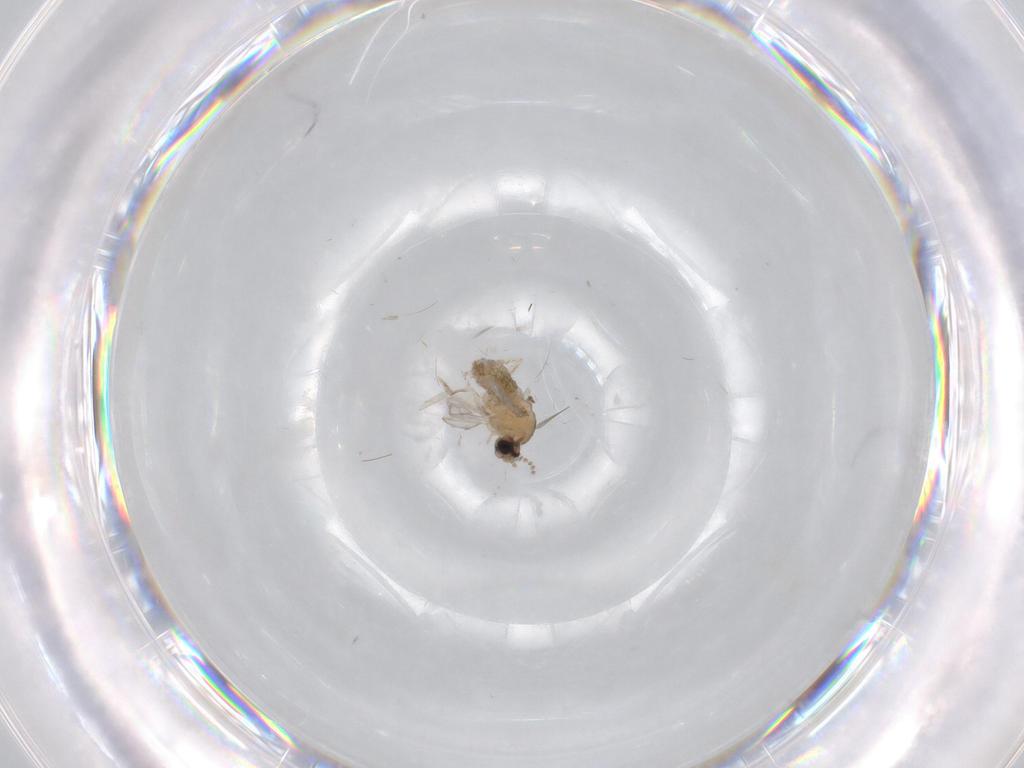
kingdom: Animalia
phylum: Arthropoda
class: Insecta
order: Diptera
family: Cecidomyiidae
